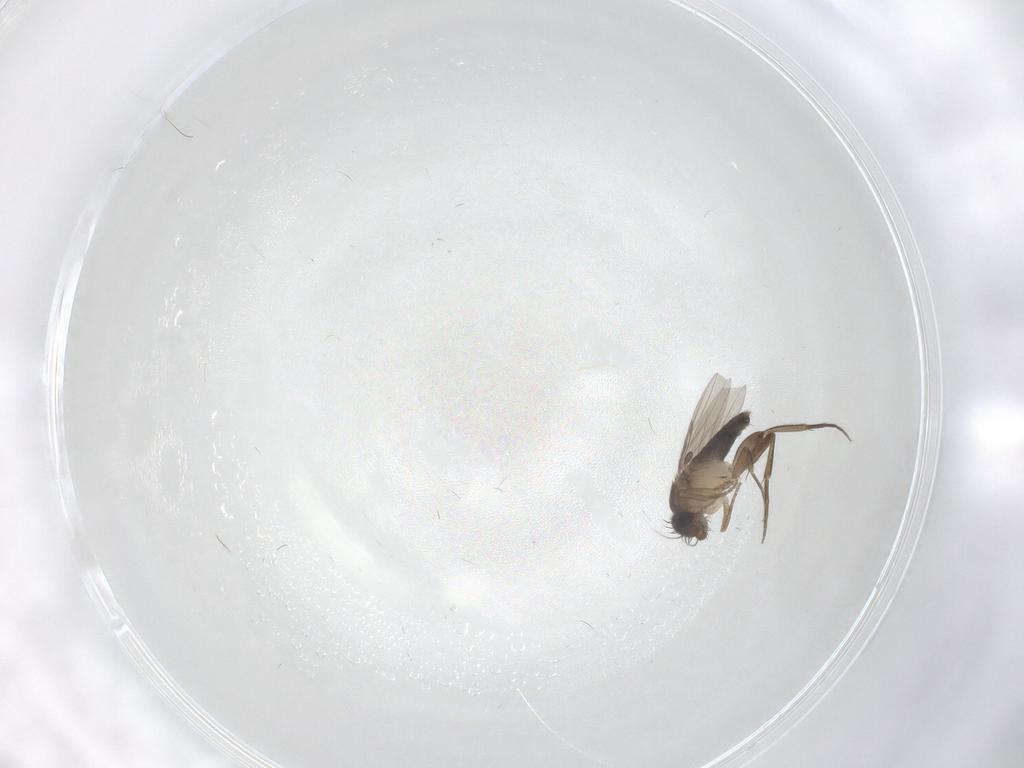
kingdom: Animalia
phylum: Arthropoda
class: Insecta
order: Diptera
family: Phoridae
